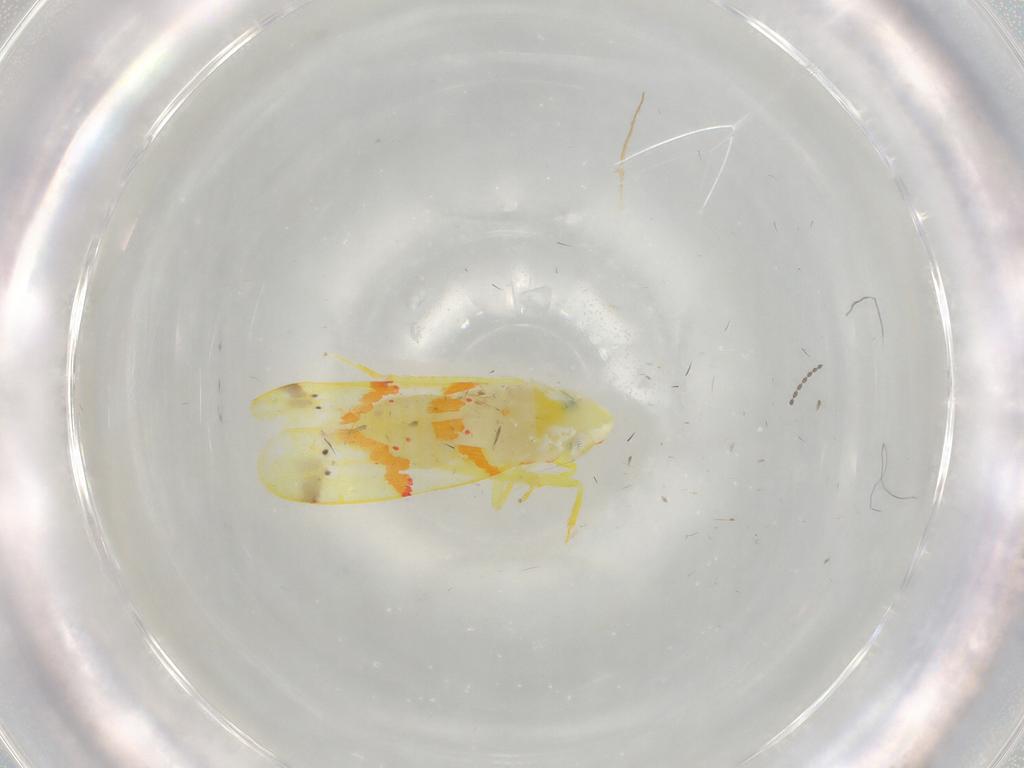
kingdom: Animalia
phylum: Arthropoda
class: Insecta
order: Hemiptera
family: Cicadellidae
